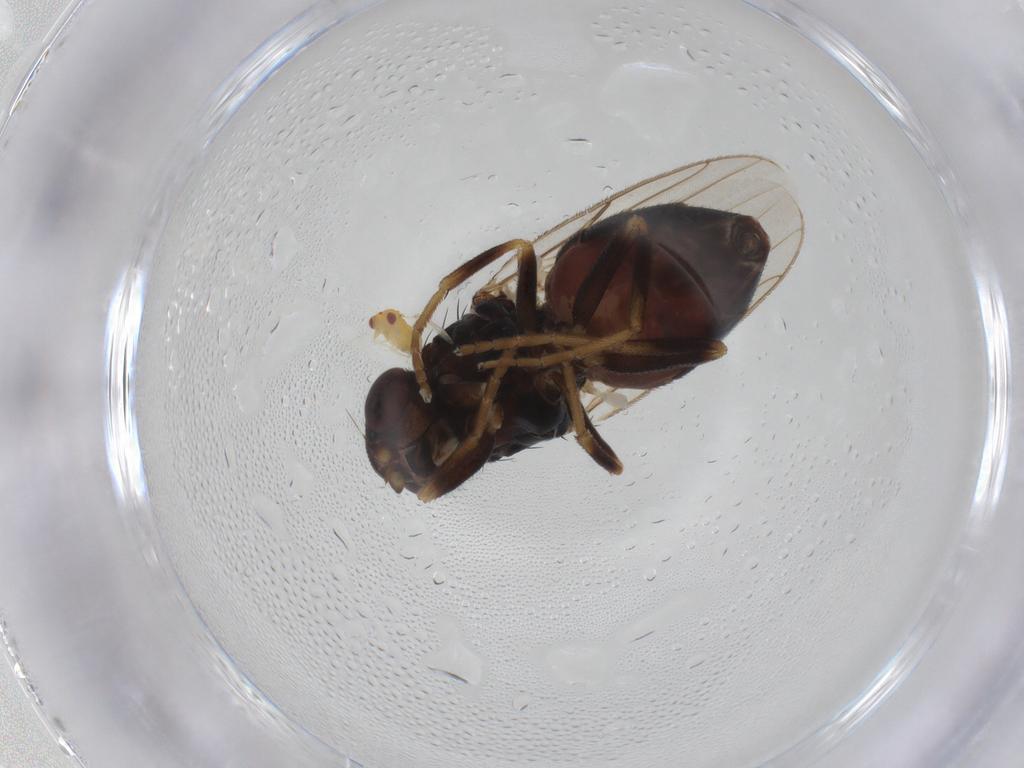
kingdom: Animalia
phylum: Arthropoda
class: Insecta
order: Diptera
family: Chloropidae
